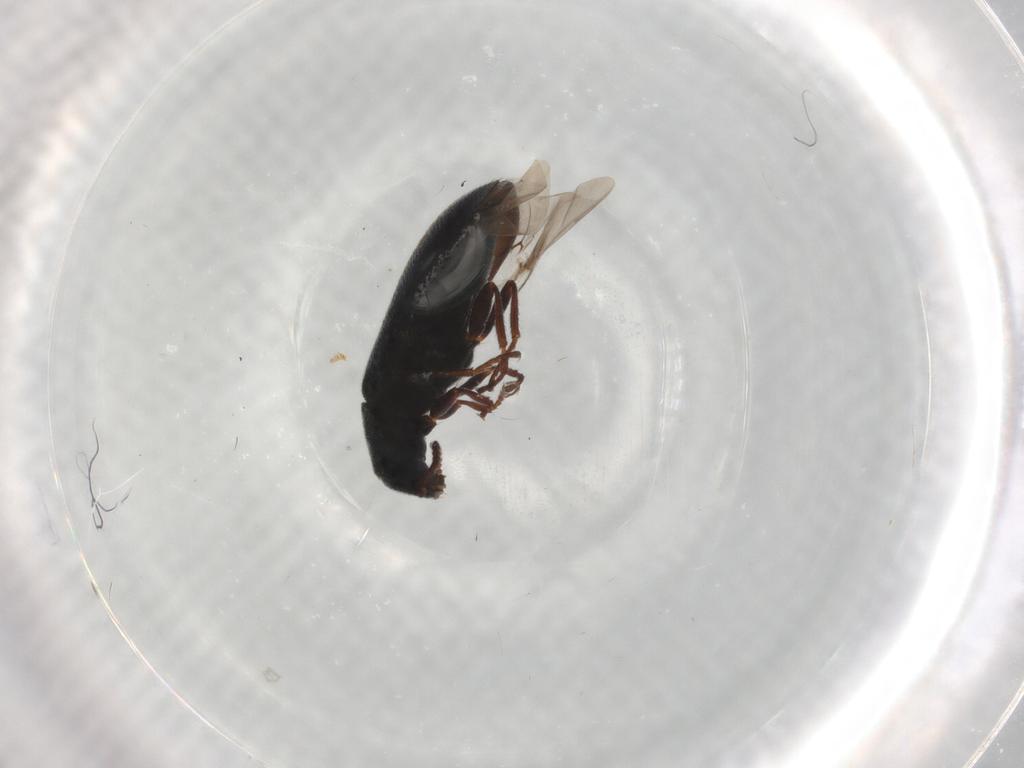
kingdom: Animalia
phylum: Arthropoda
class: Insecta
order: Coleoptera
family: Melyridae
